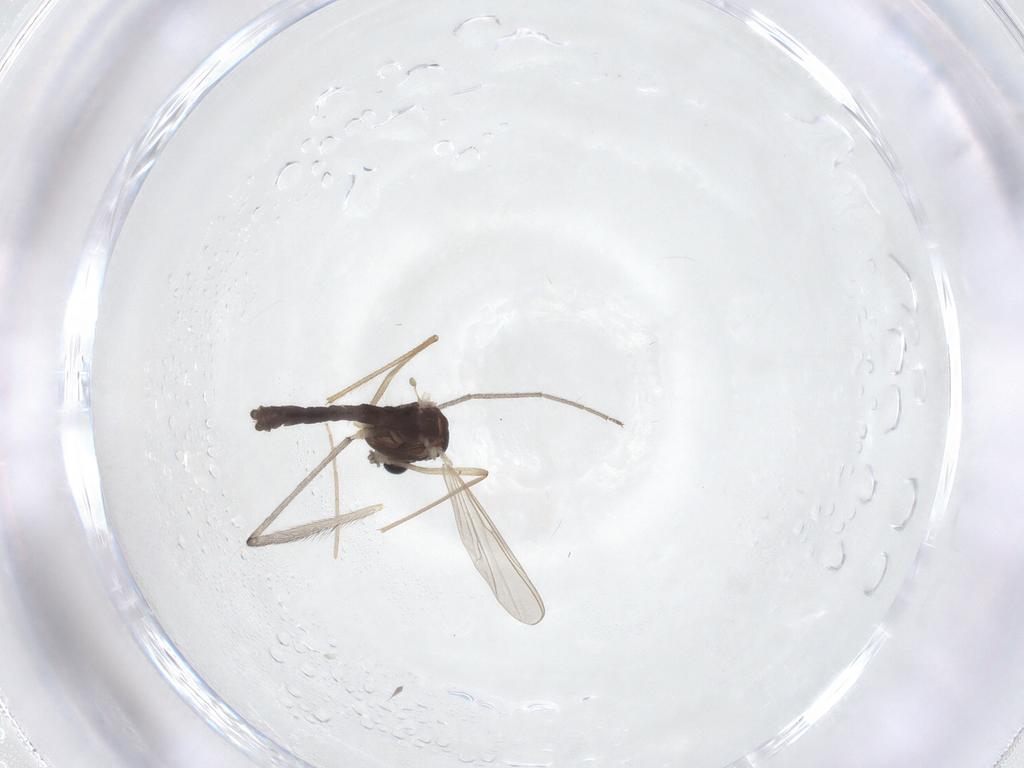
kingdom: Animalia
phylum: Arthropoda
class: Insecta
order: Diptera
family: Chironomidae
